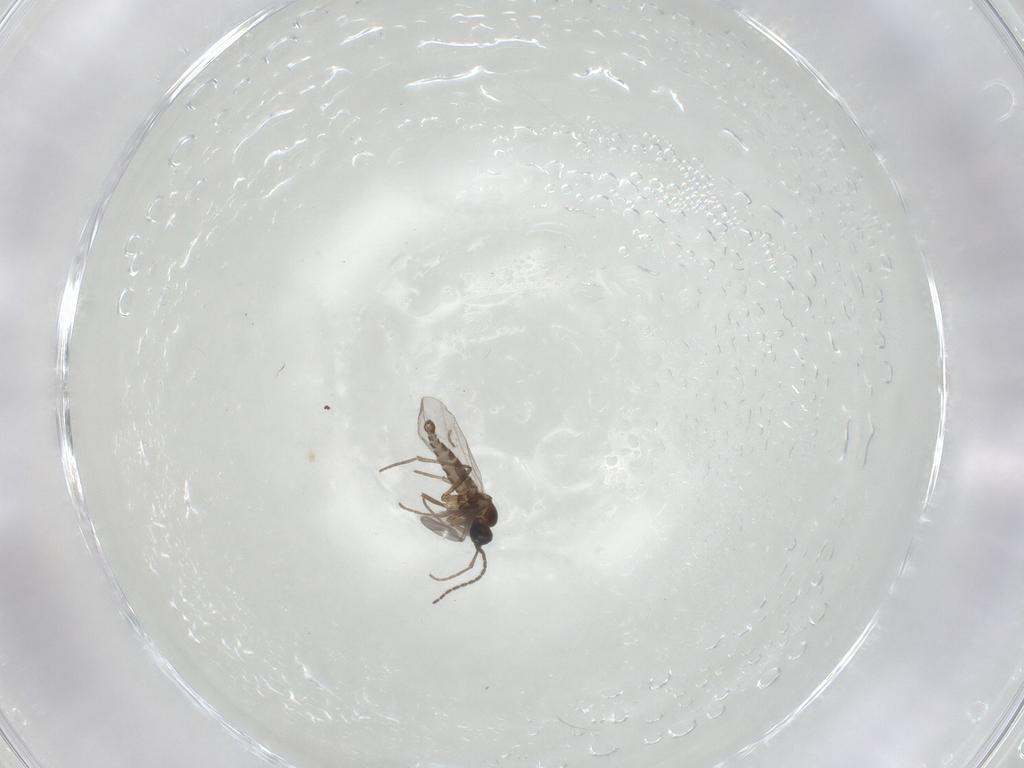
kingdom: Animalia
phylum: Arthropoda
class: Insecta
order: Diptera
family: Sciaridae
